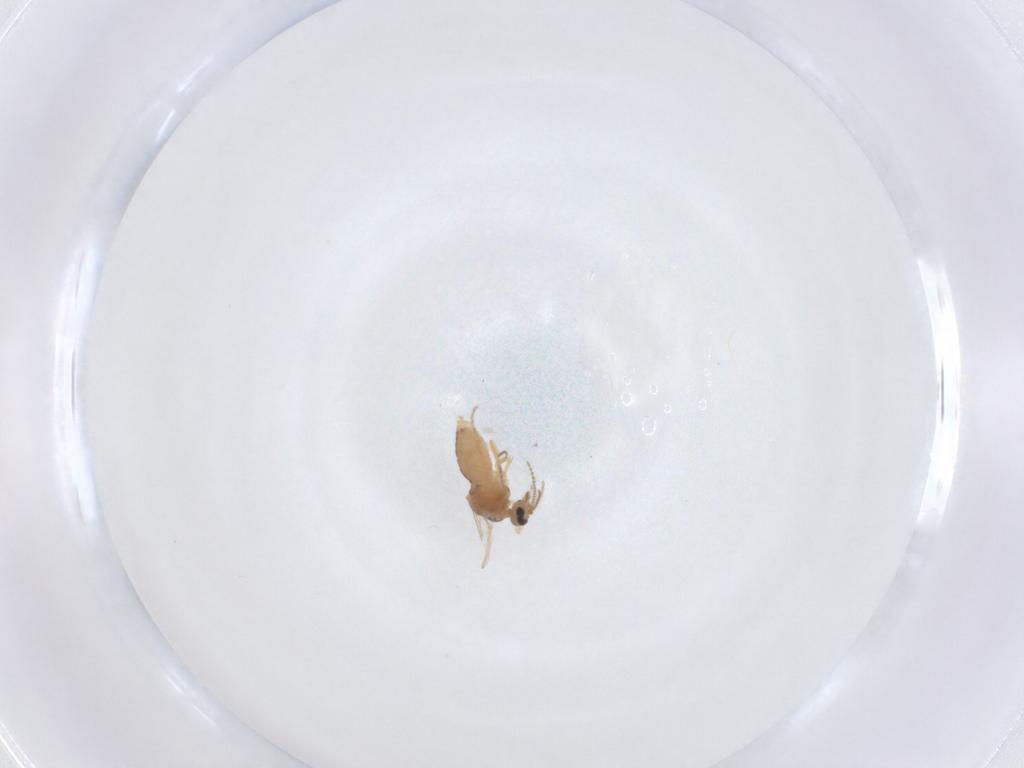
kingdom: Animalia
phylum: Arthropoda
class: Insecta
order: Diptera
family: Ceratopogonidae
